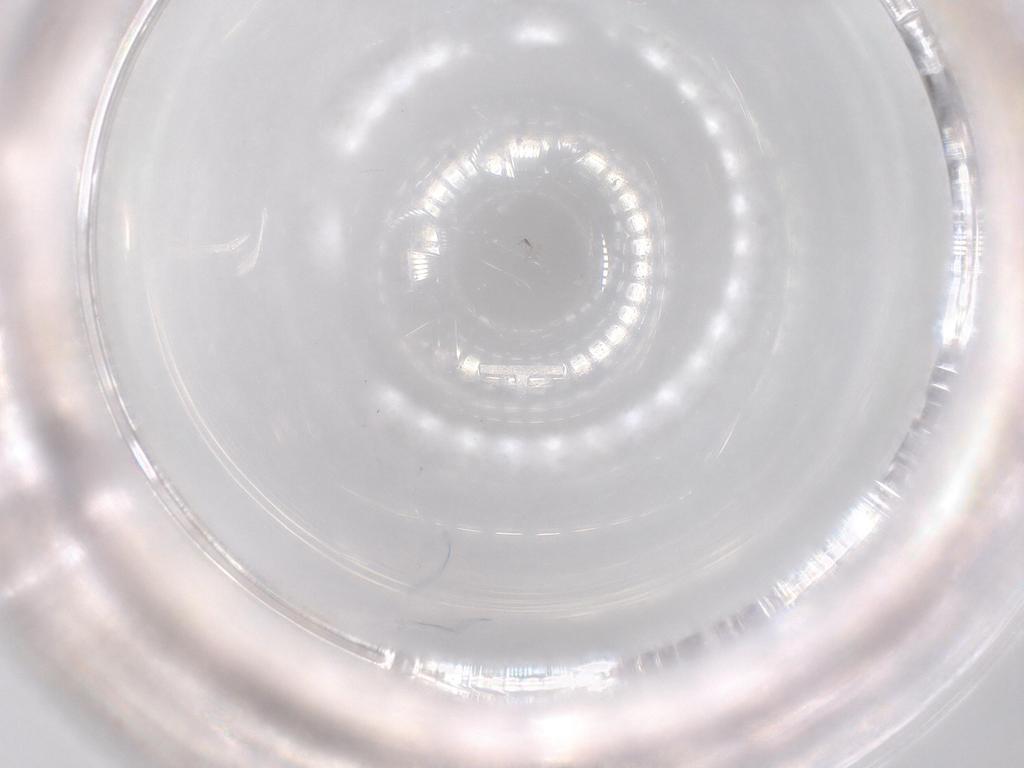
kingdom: Animalia
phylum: Arthropoda
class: Insecta
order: Diptera
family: Sciaridae
